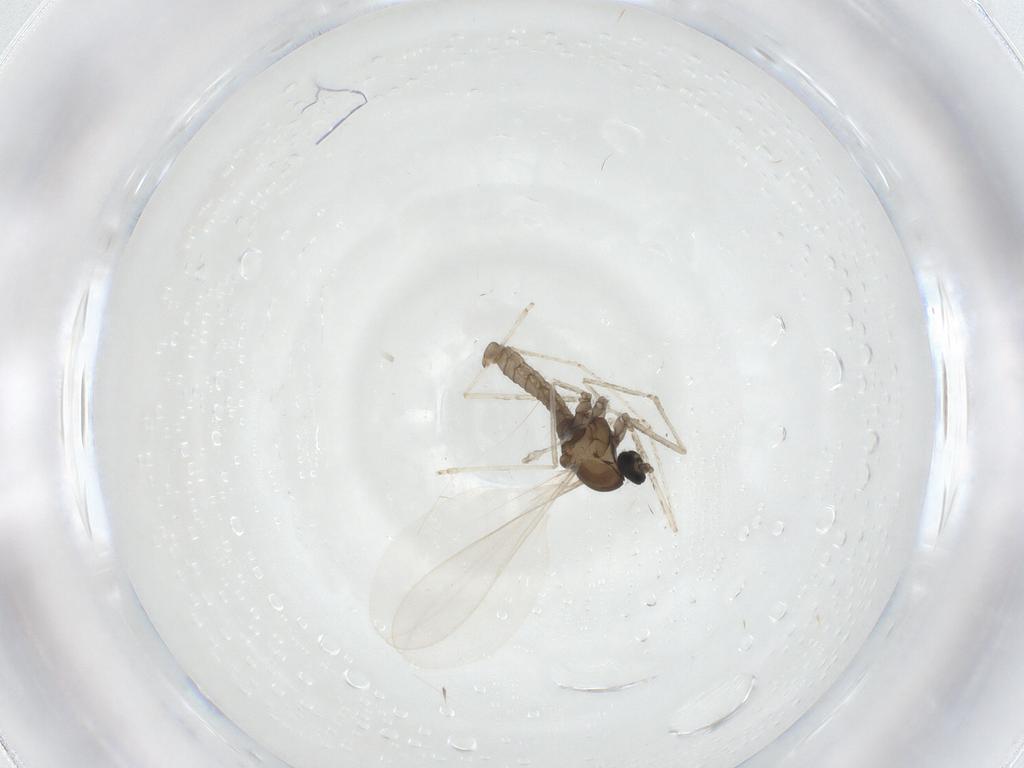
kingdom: Animalia
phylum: Arthropoda
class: Insecta
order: Diptera
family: Cecidomyiidae
